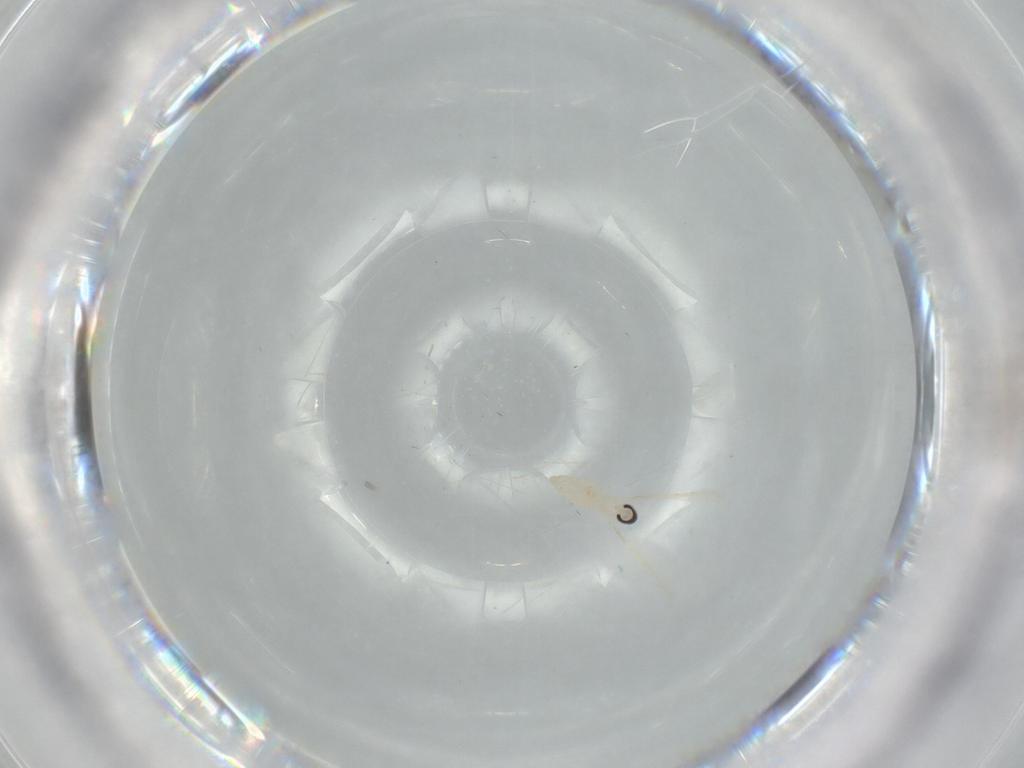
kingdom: Animalia
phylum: Arthropoda
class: Insecta
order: Diptera
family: Cecidomyiidae
